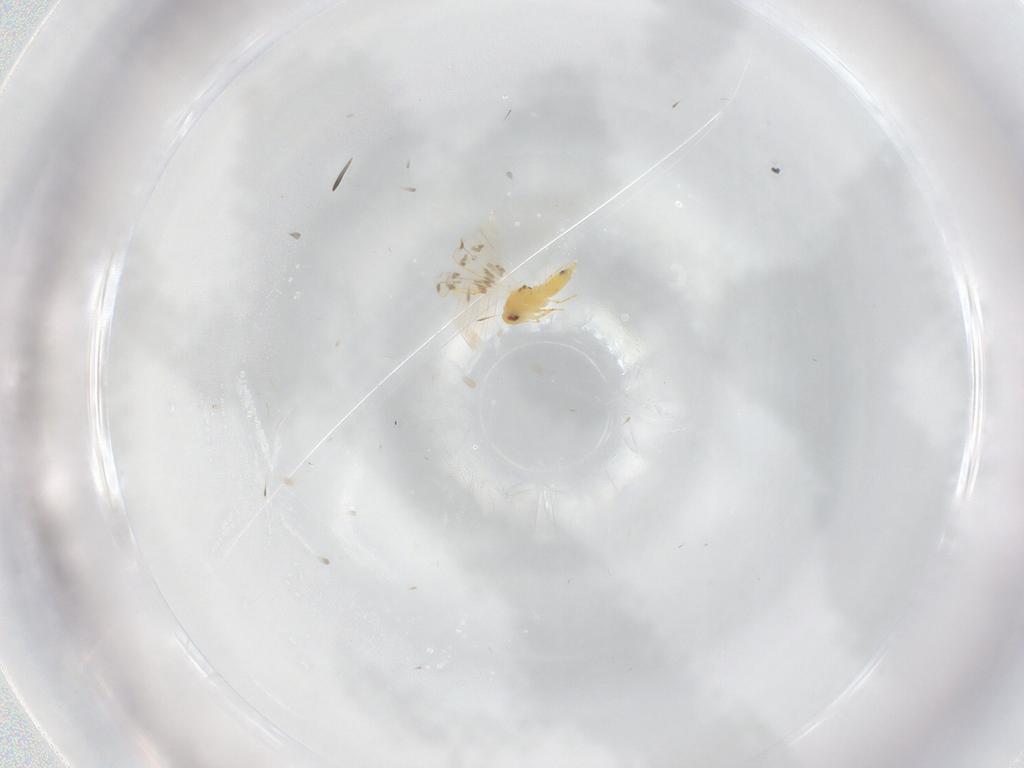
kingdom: Animalia
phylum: Arthropoda
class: Insecta
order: Hemiptera
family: Aleyrodidae
